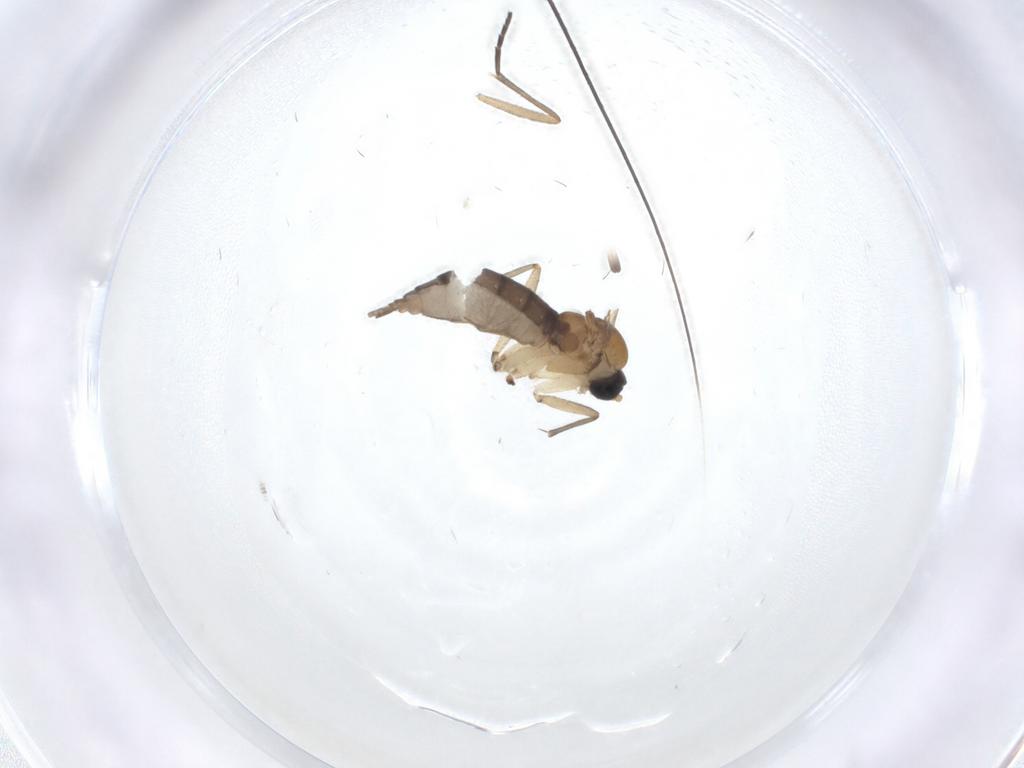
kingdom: Animalia
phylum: Arthropoda
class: Insecta
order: Diptera
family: Sciaridae
